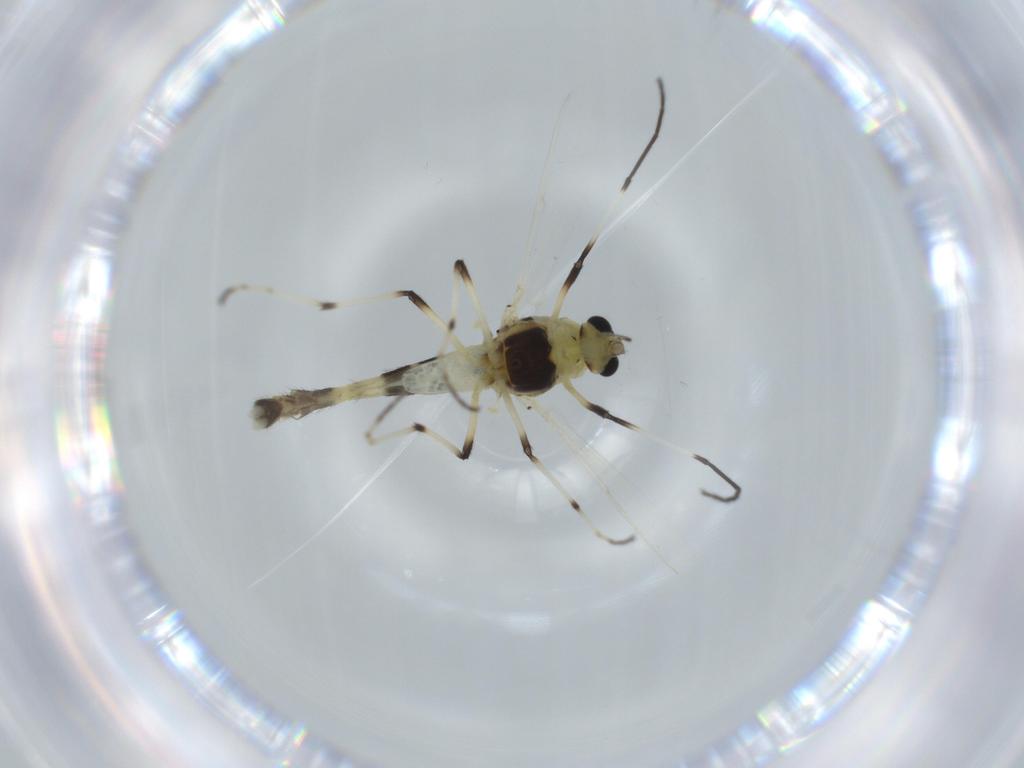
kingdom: Animalia
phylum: Arthropoda
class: Insecta
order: Diptera
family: Chironomidae
